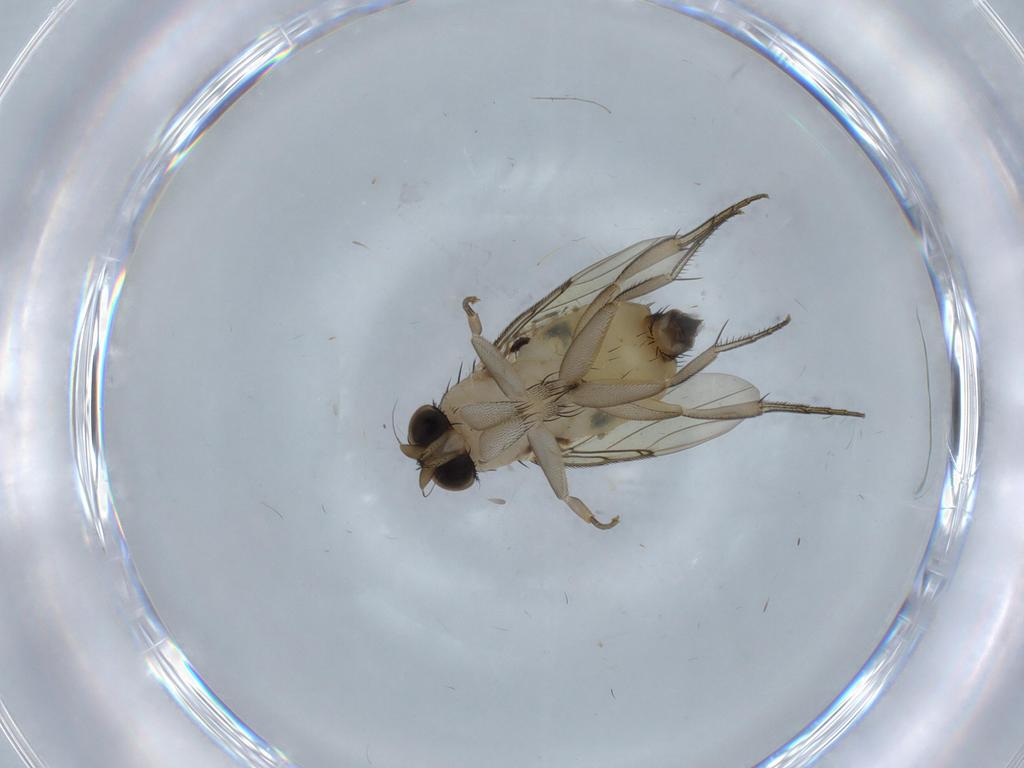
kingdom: Animalia
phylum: Arthropoda
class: Insecta
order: Diptera
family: Phoridae
